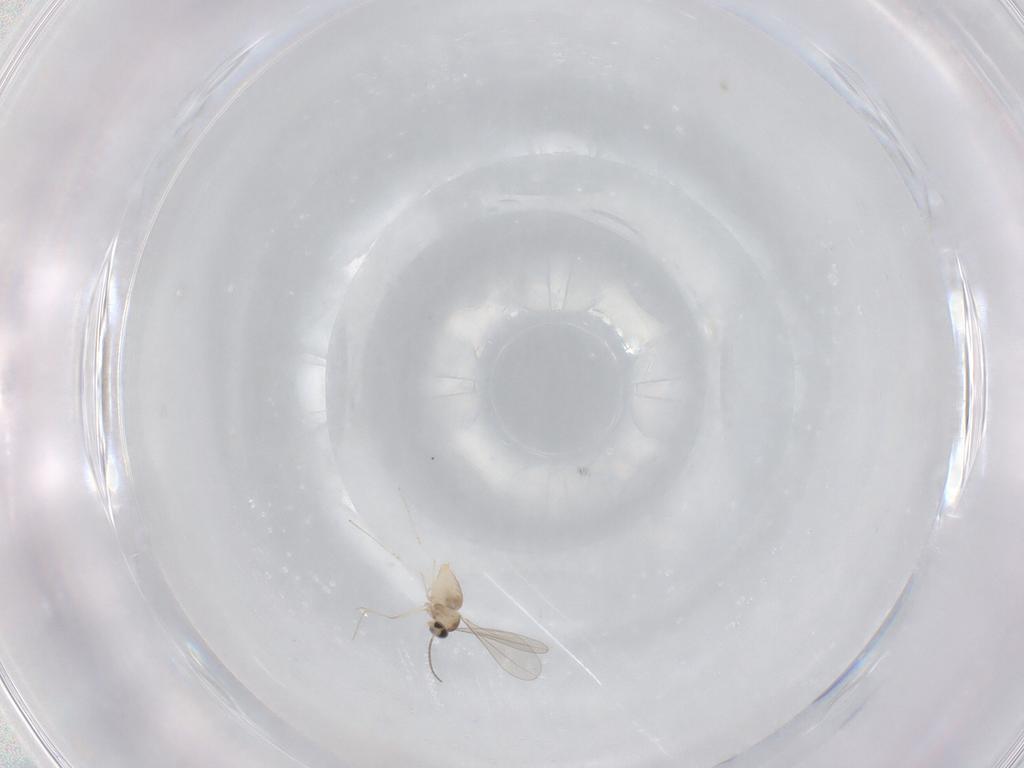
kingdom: Animalia
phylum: Arthropoda
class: Insecta
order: Diptera
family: Cecidomyiidae
